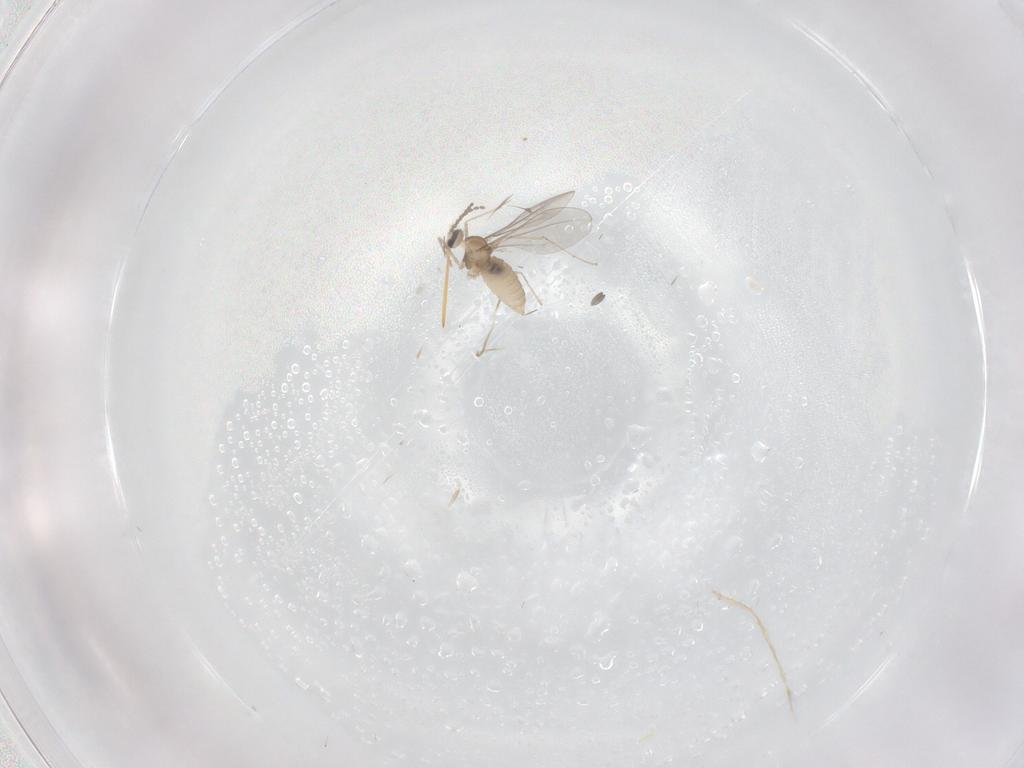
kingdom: Animalia
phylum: Arthropoda
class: Insecta
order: Diptera
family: Cecidomyiidae
